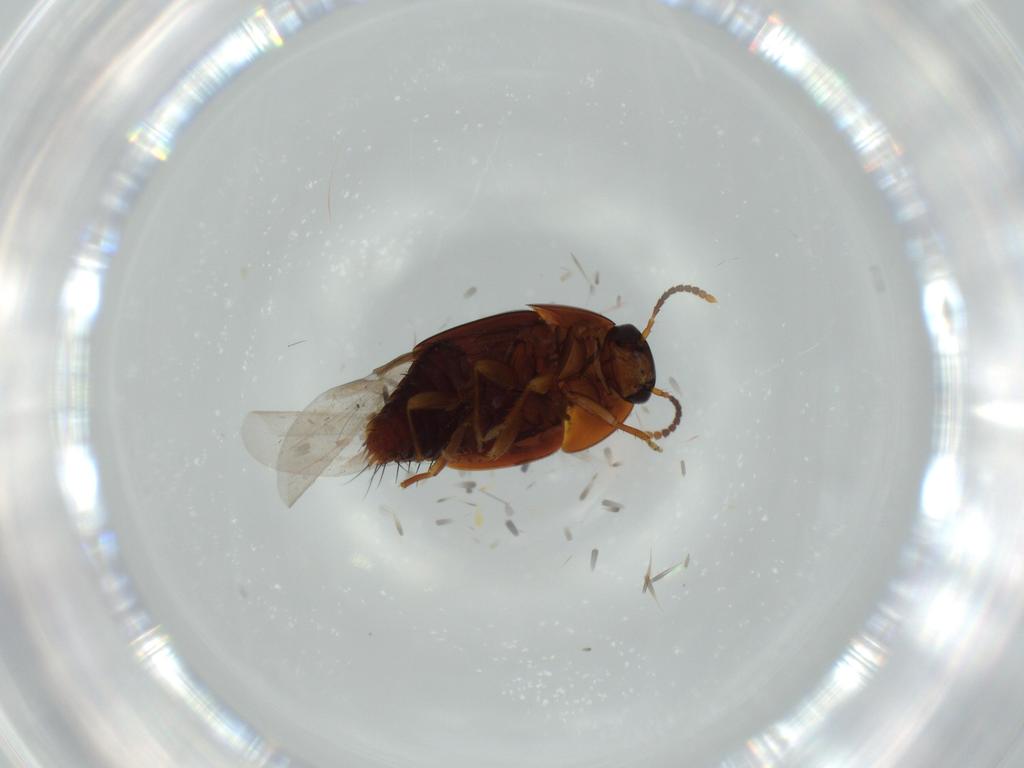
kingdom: Animalia
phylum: Arthropoda
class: Insecta
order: Coleoptera
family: Staphylinidae
